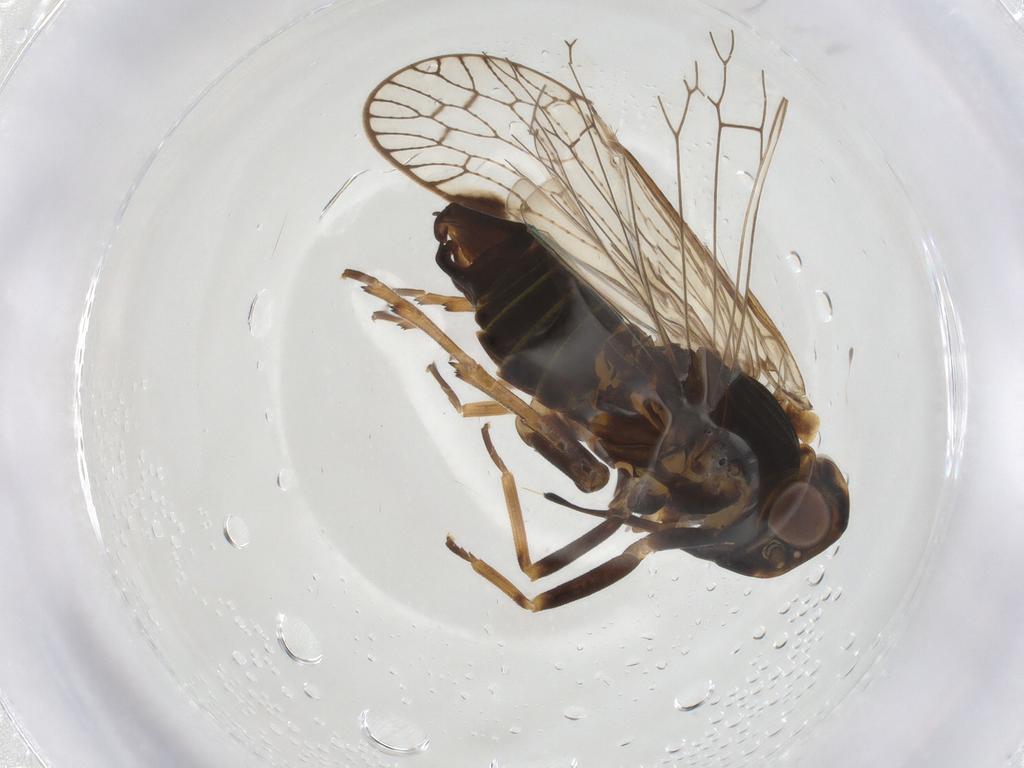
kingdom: Animalia
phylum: Arthropoda
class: Insecta
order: Hemiptera
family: Cixiidae
